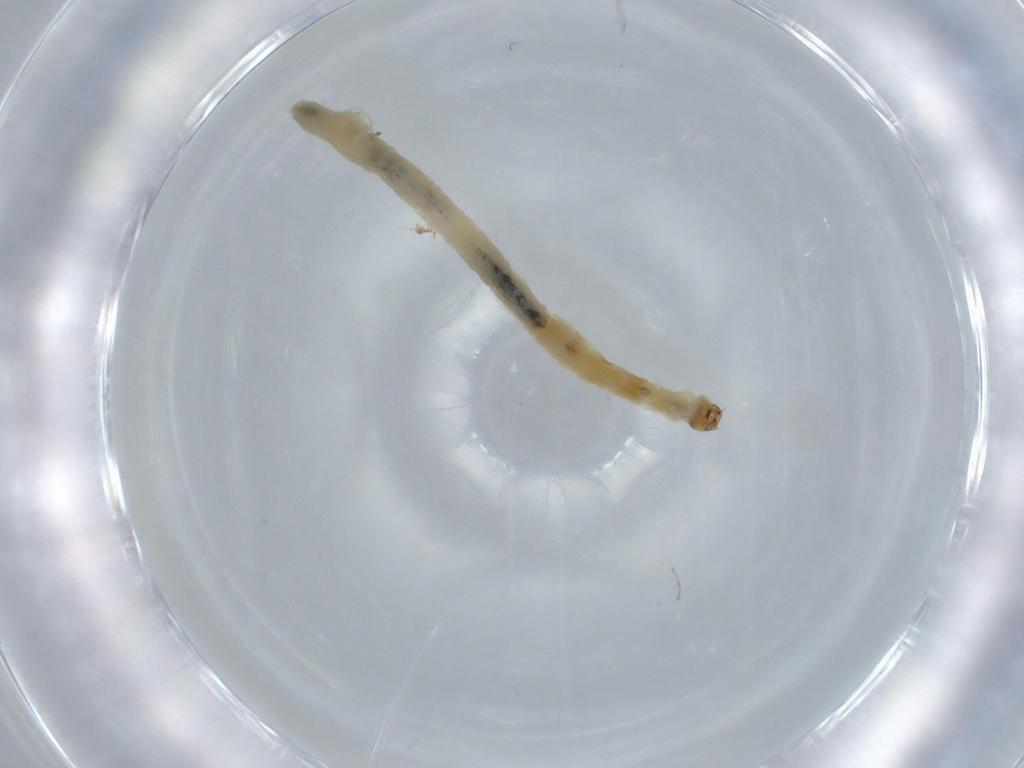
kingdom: Animalia
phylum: Arthropoda
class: Insecta
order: Diptera
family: Chironomidae
